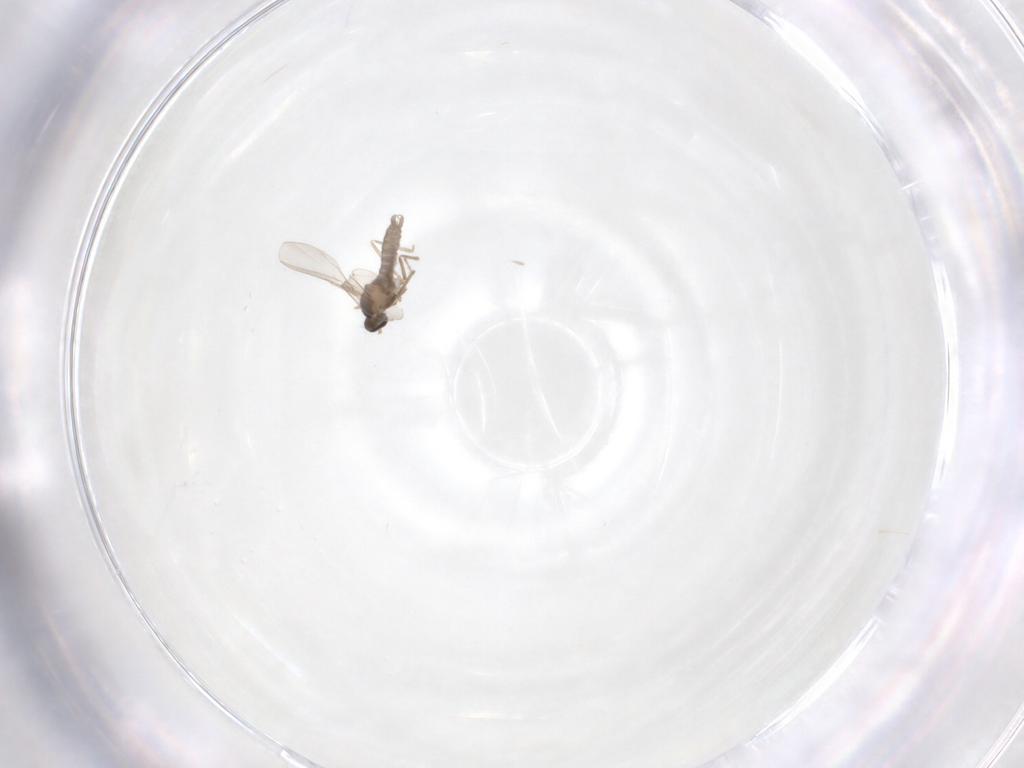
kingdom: Animalia
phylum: Arthropoda
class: Insecta
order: Diptera
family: Cecidomyiidae
